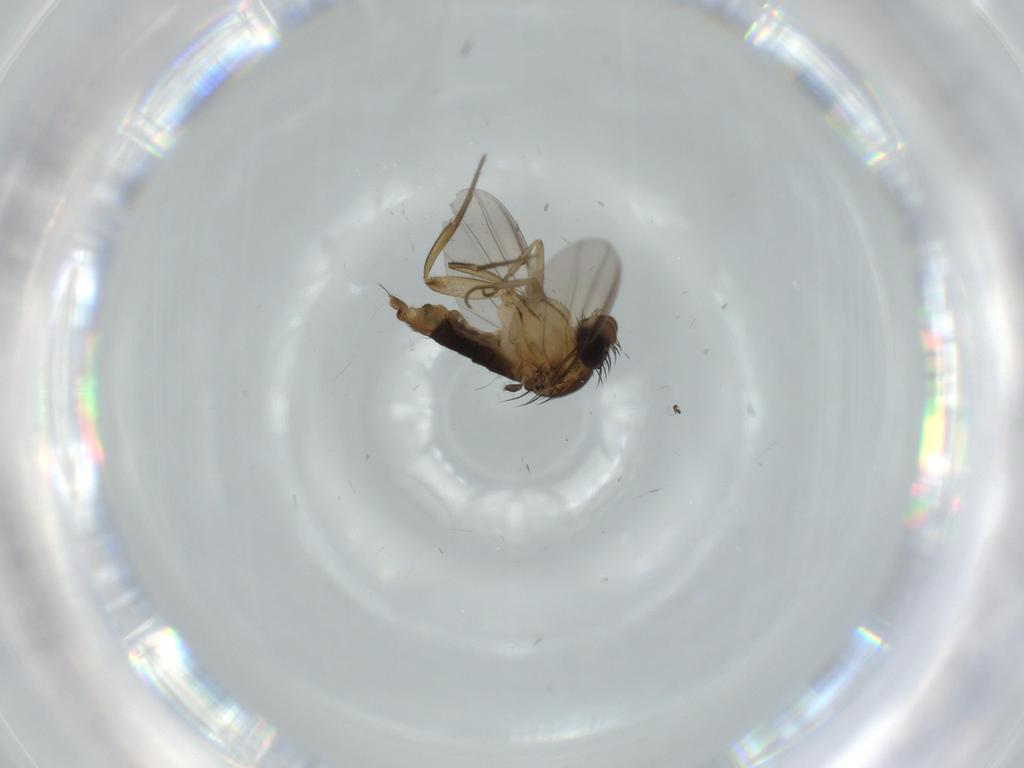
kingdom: Animalia
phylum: Arthropoda
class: Insecta
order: Diptera
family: Phoridae
